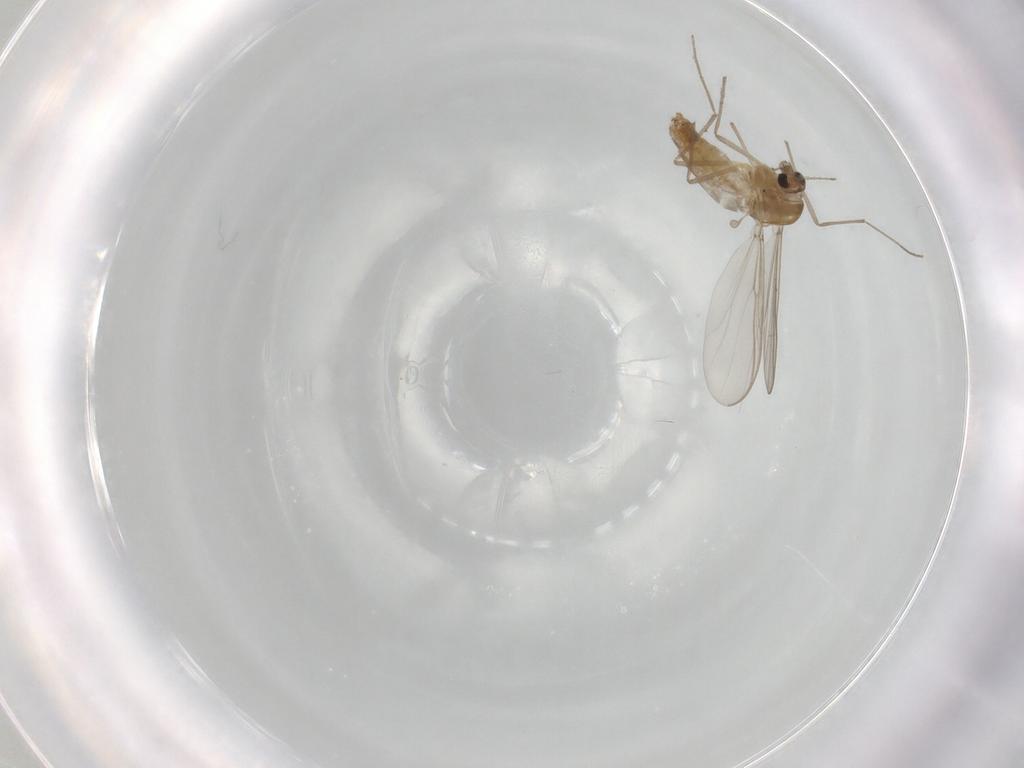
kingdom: Animalia
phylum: Arthropoda
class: Insecta
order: Diptera
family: Chironomidae
